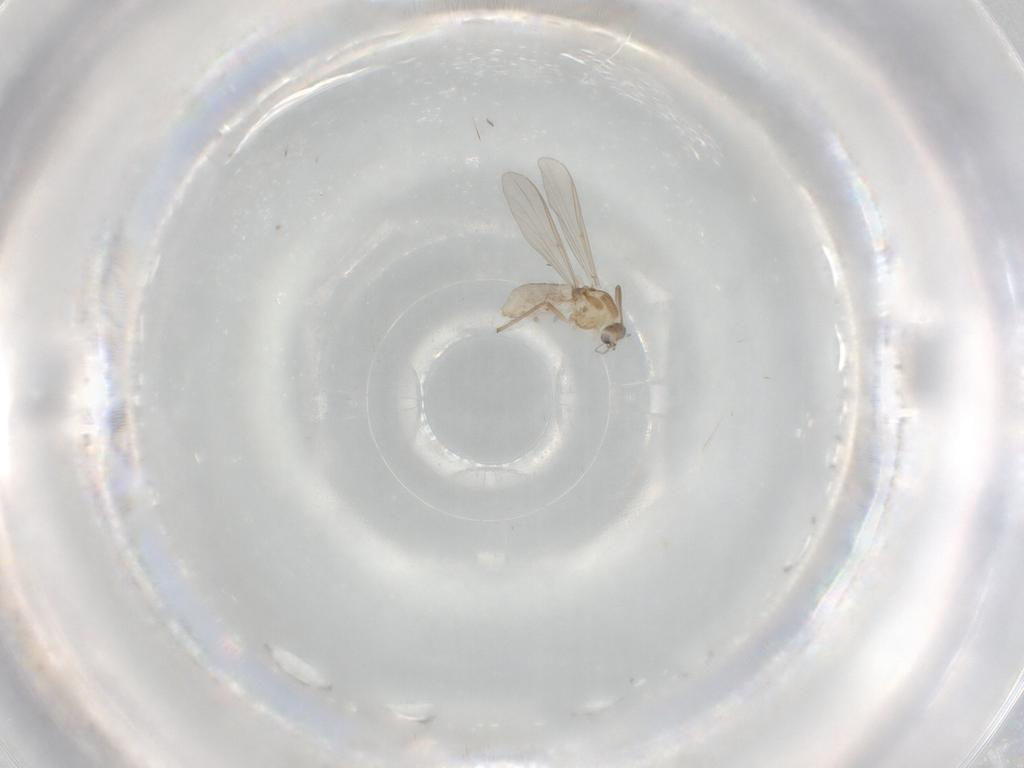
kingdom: Animalia
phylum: Arthropoda
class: Insecta
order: Diptera
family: Chironomidae
